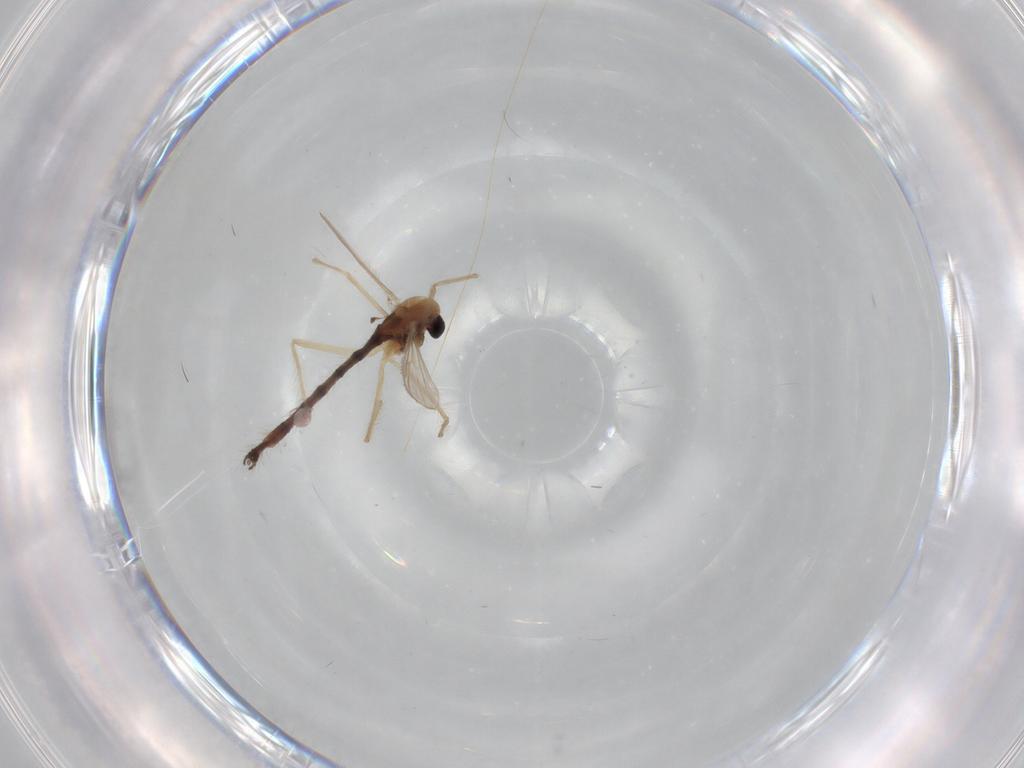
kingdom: Animalia
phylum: Arthropoda
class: Insecta
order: Diptera
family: Chironomidae
